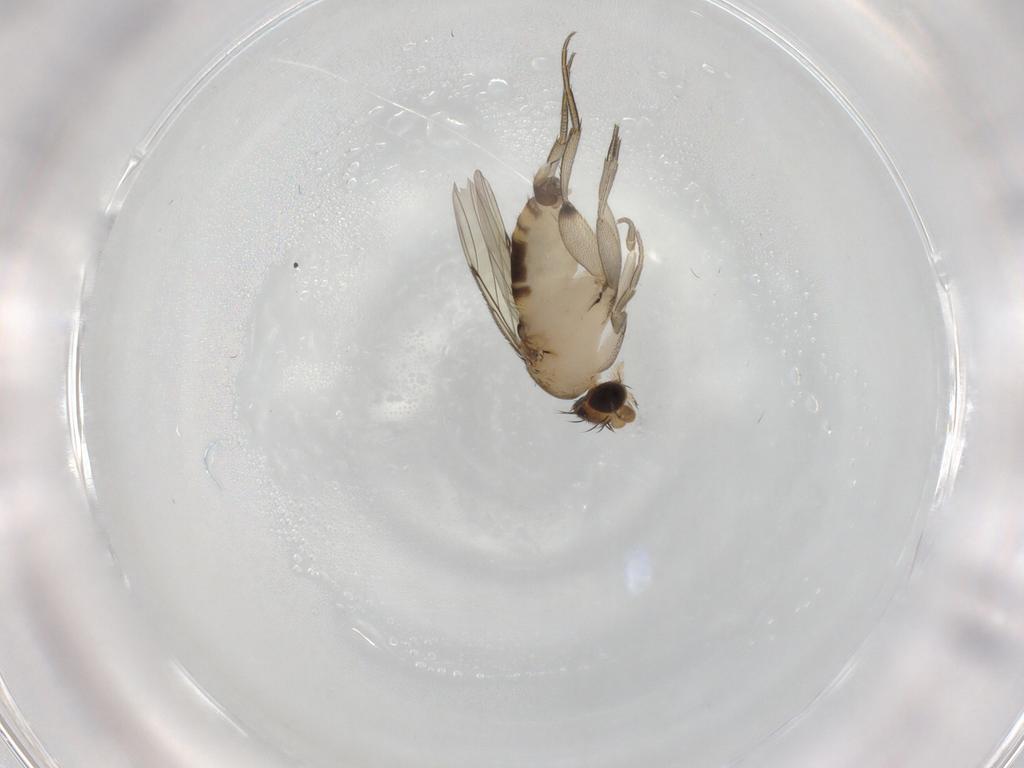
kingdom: Animalia
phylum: Arthropoda
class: Insecta
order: Diptera
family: Phoridae
